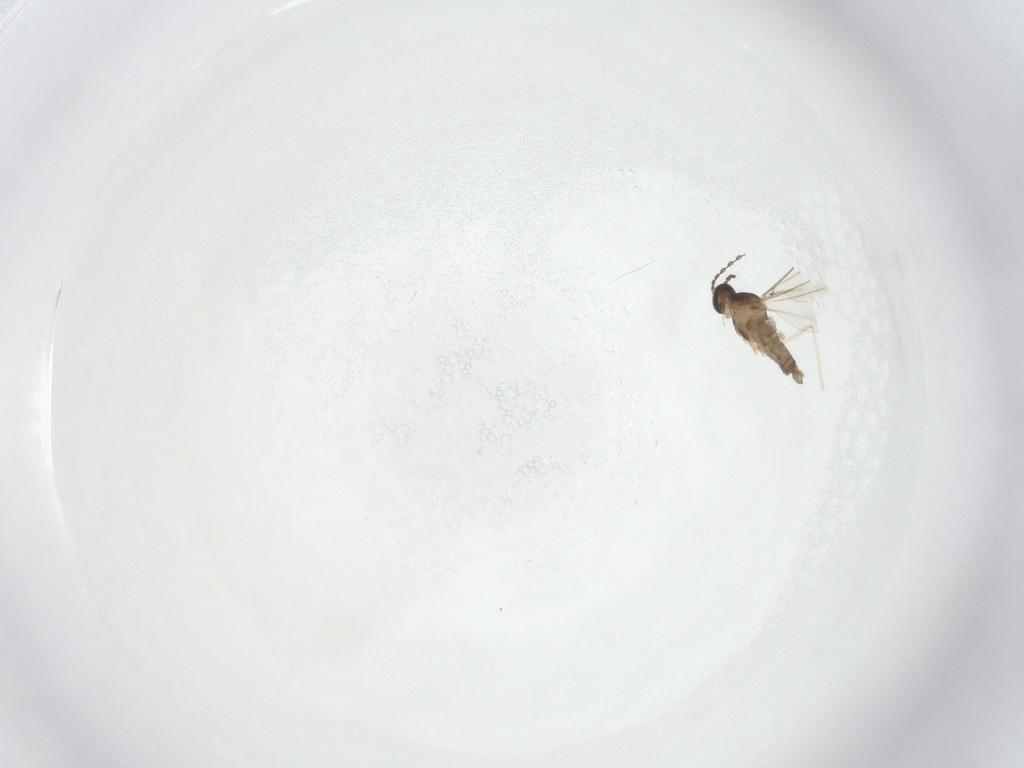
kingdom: Animalia
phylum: Arthropoda
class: Insecta
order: Diptera
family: Cecidomyiidae
